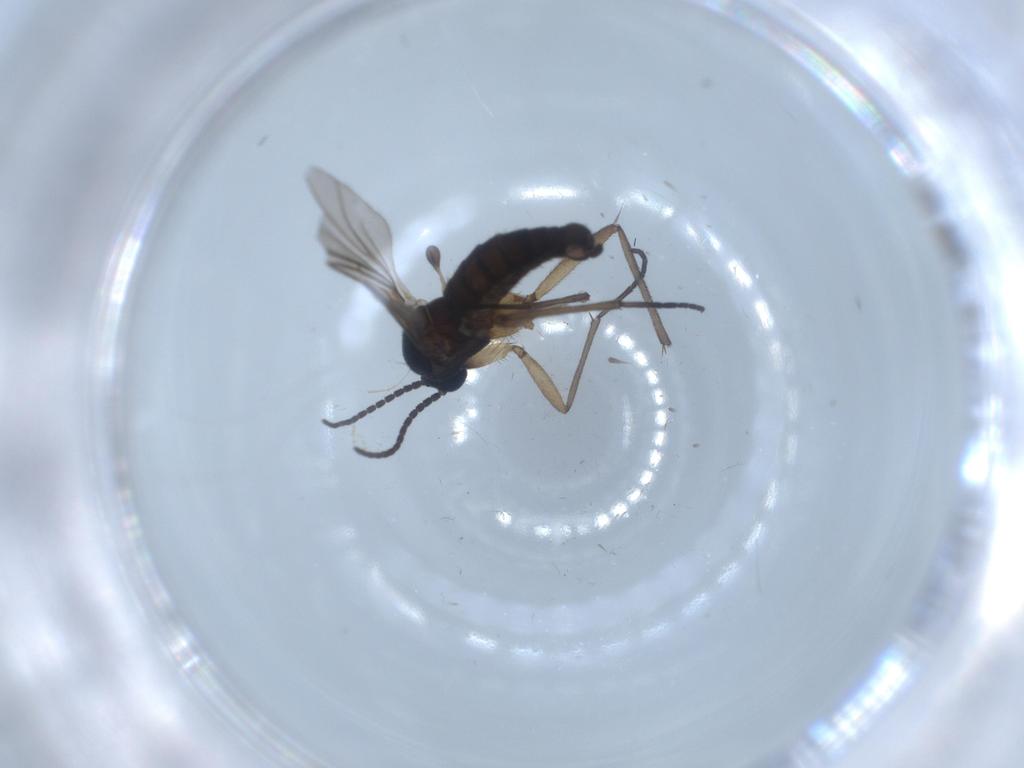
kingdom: Animalia
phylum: Arthropoda
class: Insecta
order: Diptera
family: Sciaridae
